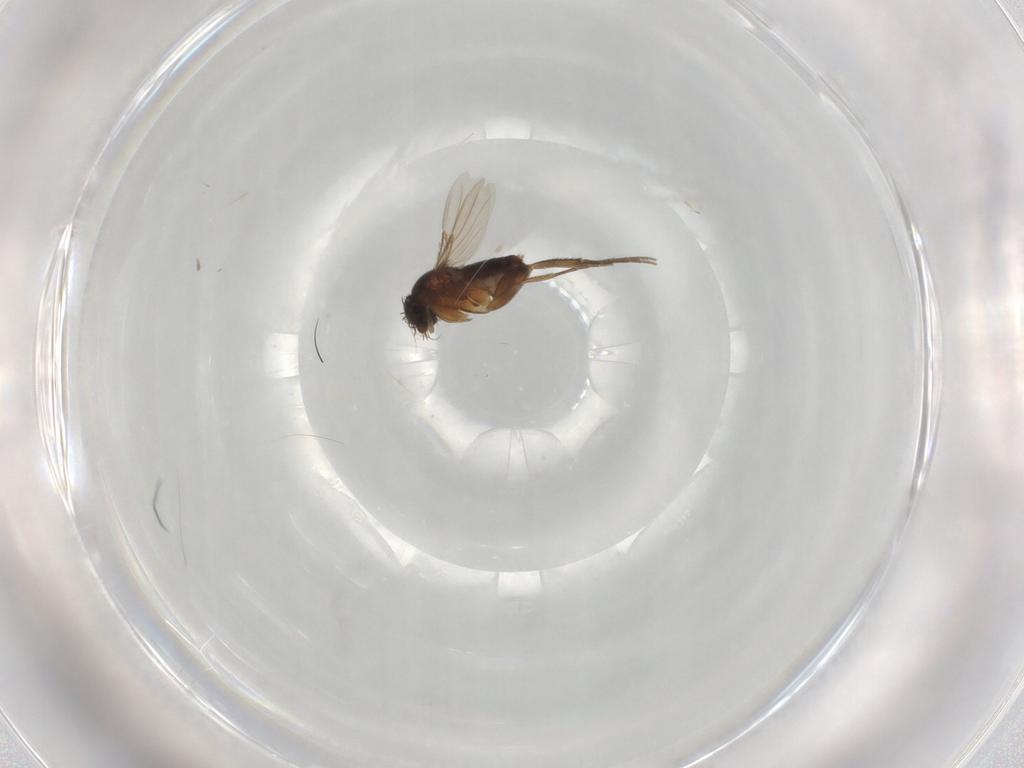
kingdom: Animalia
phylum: Arthropoda
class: Insecta
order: Diptera
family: Phoridae
